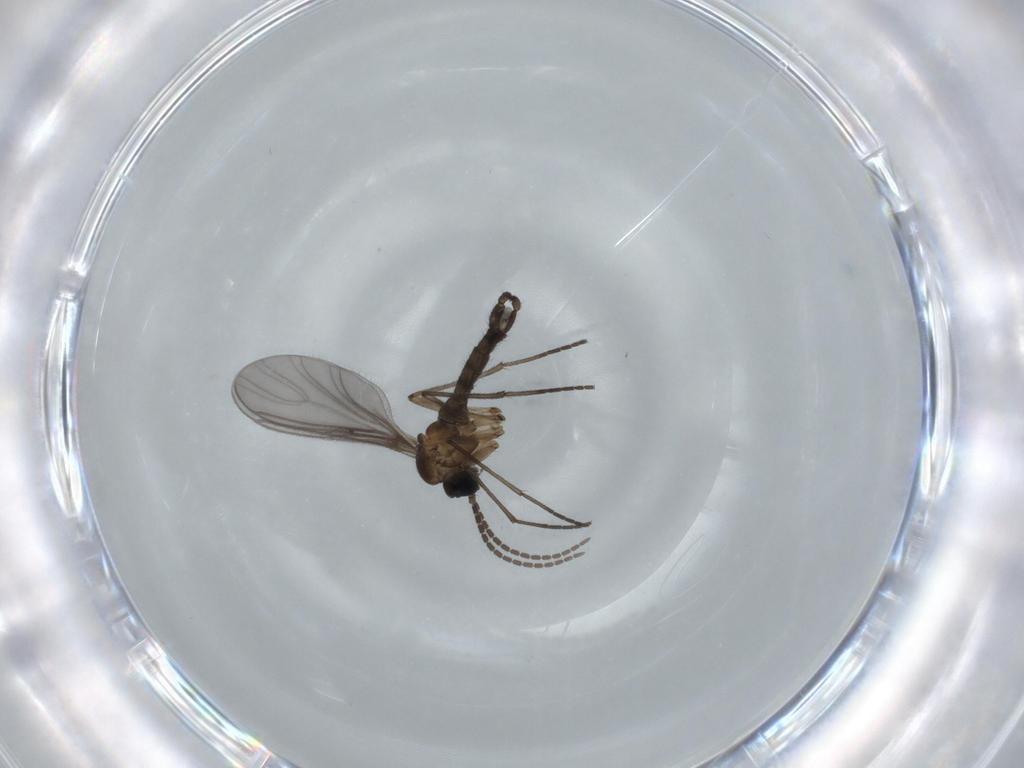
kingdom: Animalia
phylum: Arthropoda
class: Insecta
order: Diptera
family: Sciaridae
